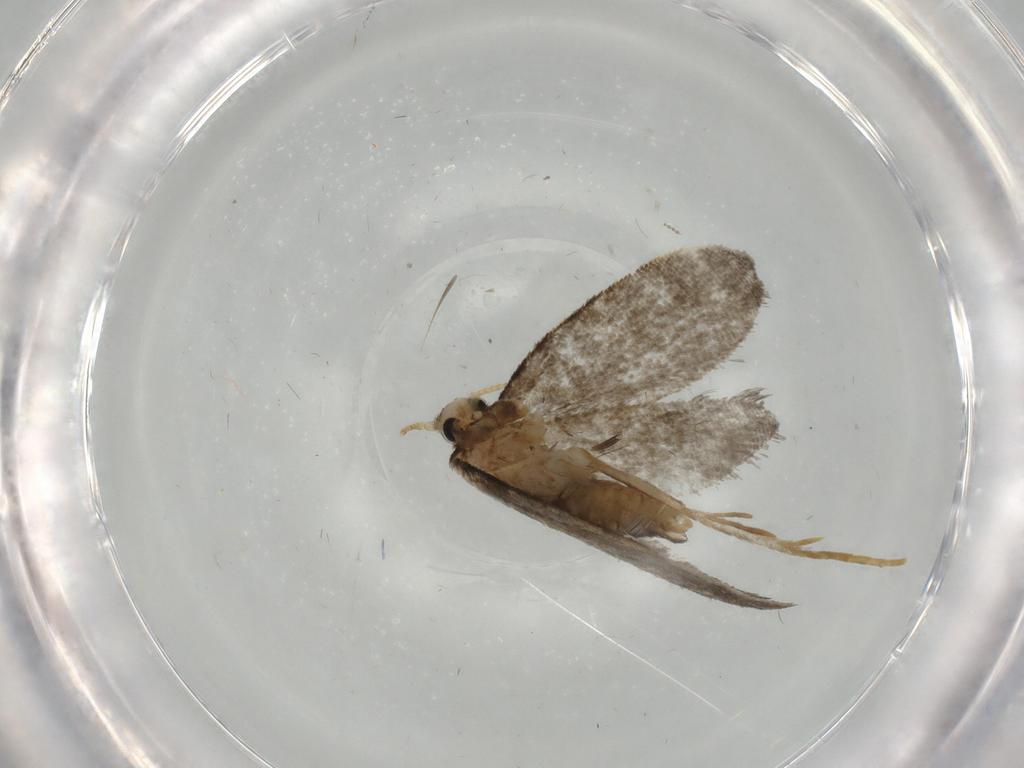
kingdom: Animalia
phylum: Arthropoda
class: Insecta
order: Lepidoptera
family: Psychidae
